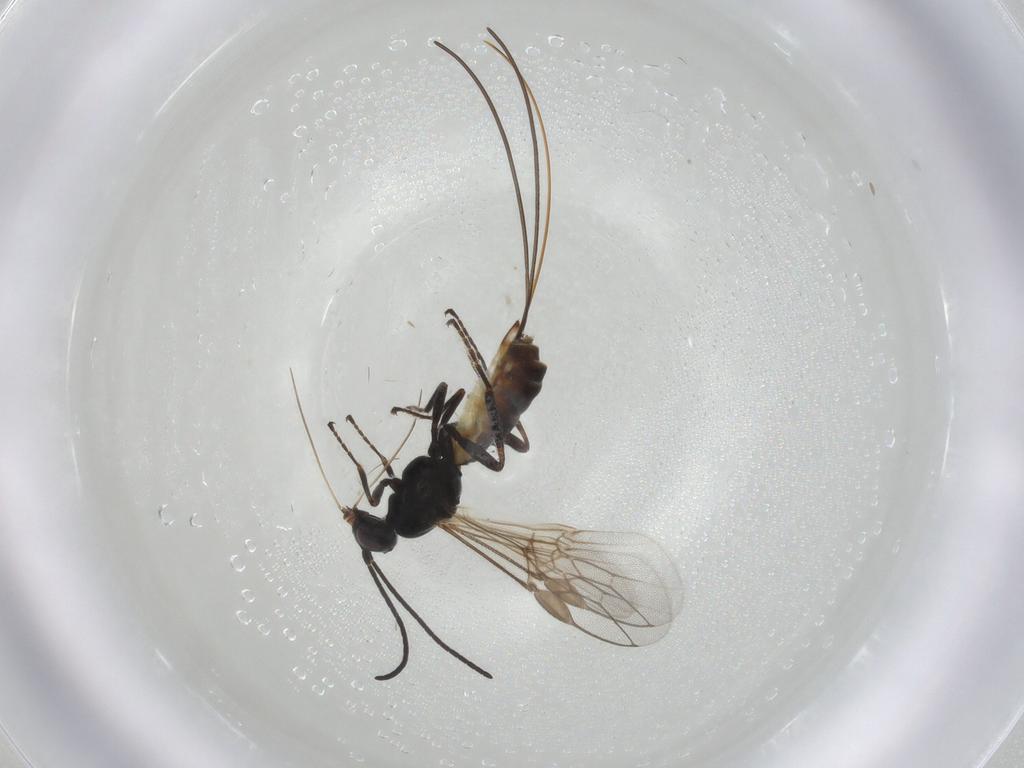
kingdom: Animalia
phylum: Arthropoda
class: Insecta
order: Hymenoptera
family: Braconidae
